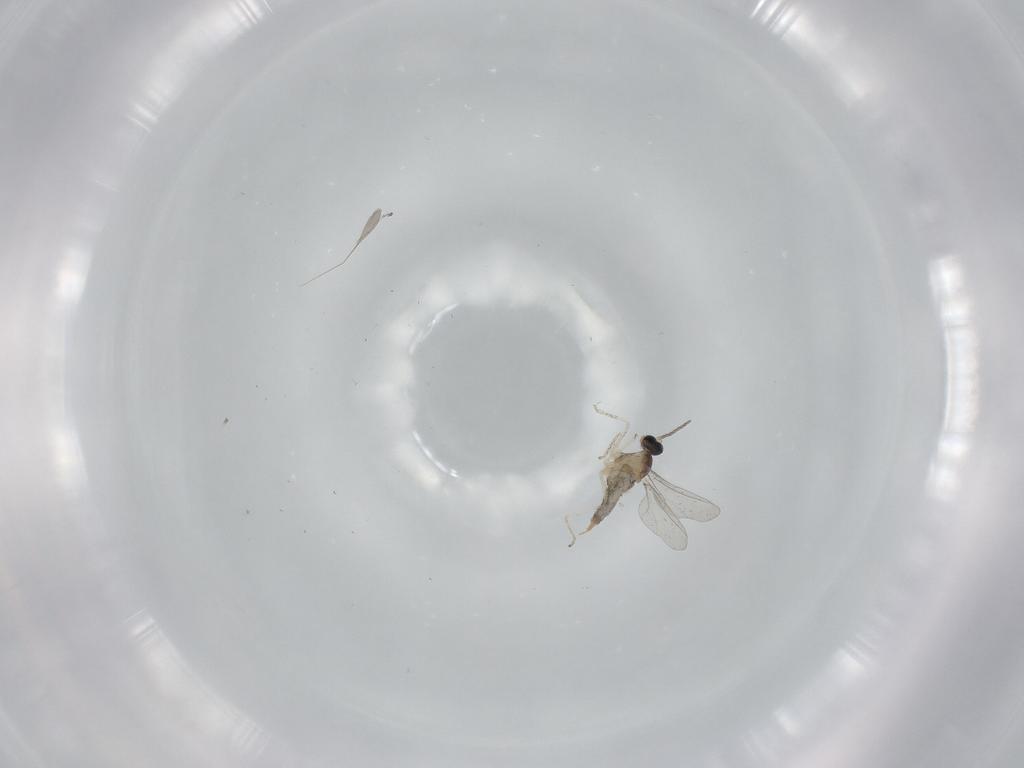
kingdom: Animalia
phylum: Arthropoda
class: Insecta
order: Diptera
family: Cecidomyiidae
